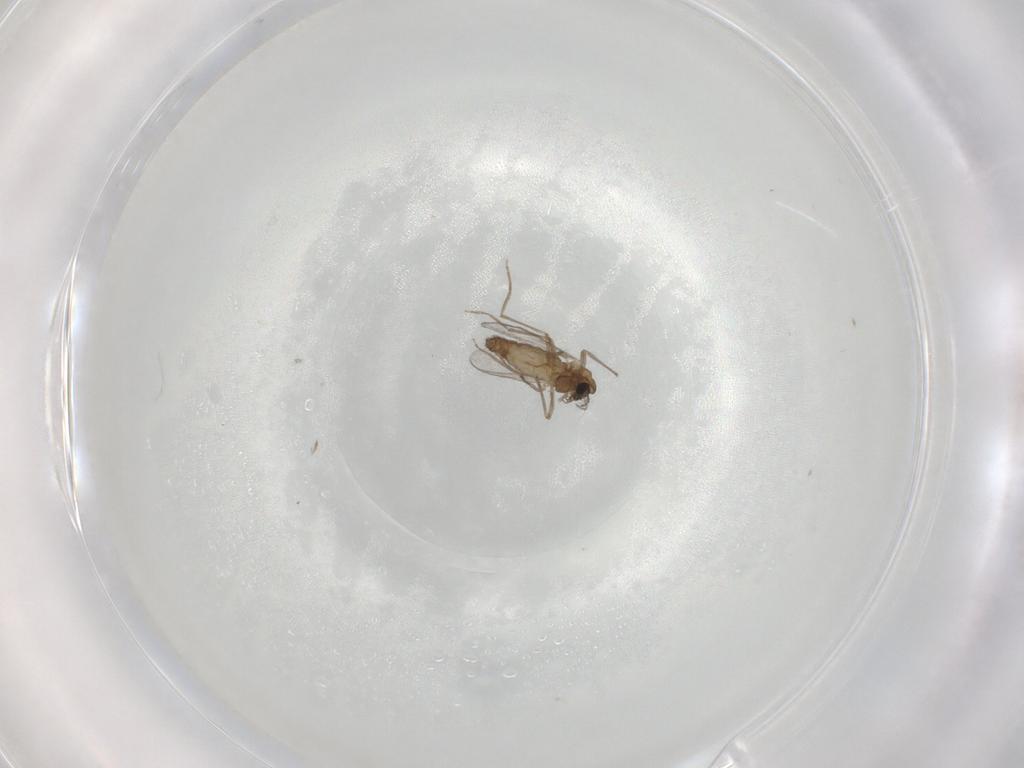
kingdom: Animalia
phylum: Arthropoda
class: Insecta
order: Diptera
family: Chironomidae
